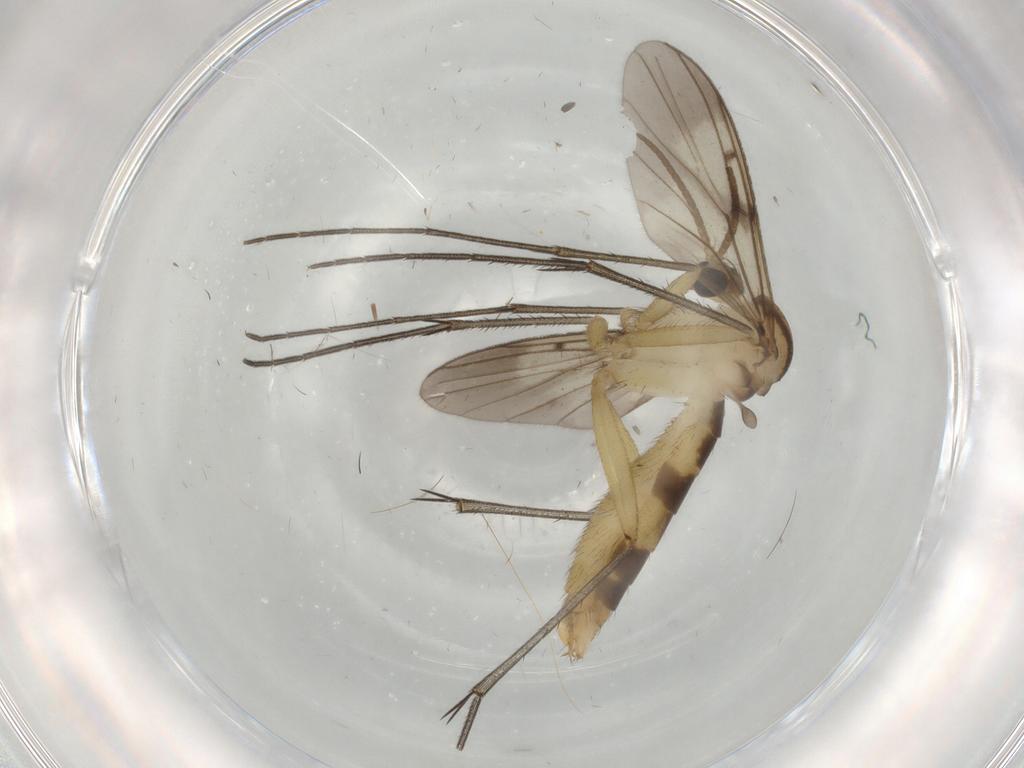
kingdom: Animalia
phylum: Arthropoda
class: Insecta
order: Diptera
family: Mycetophilidae
